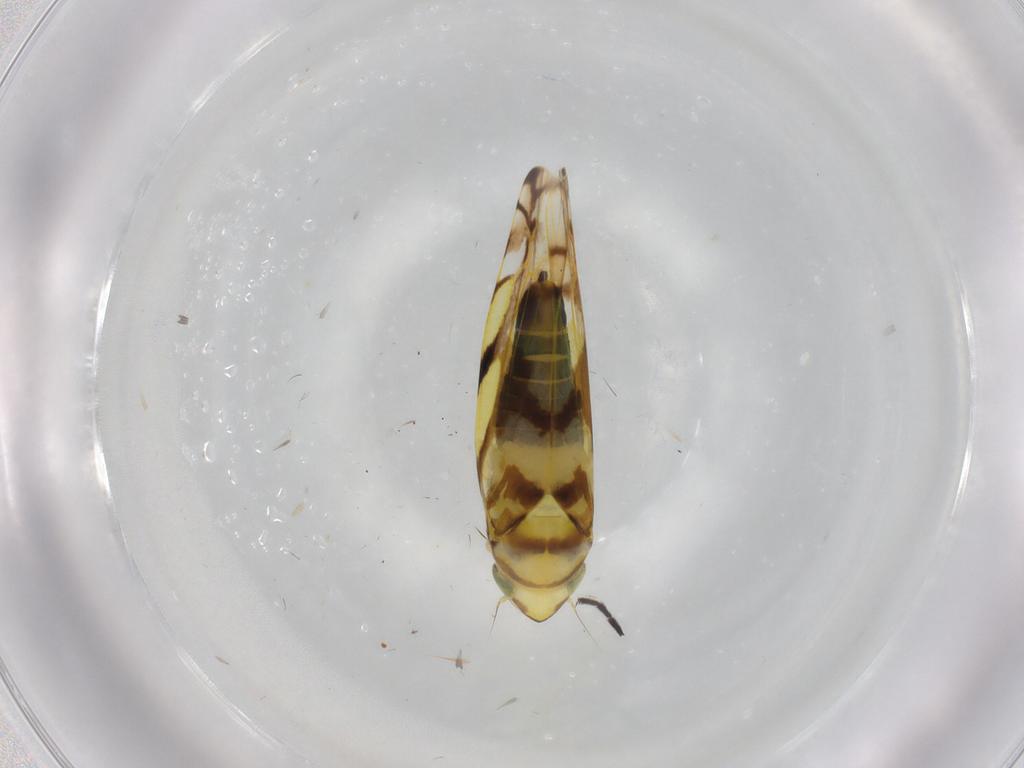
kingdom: Animalia
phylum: Arthropoda
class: Insecta
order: Hemiptera
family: Cicadellidae
